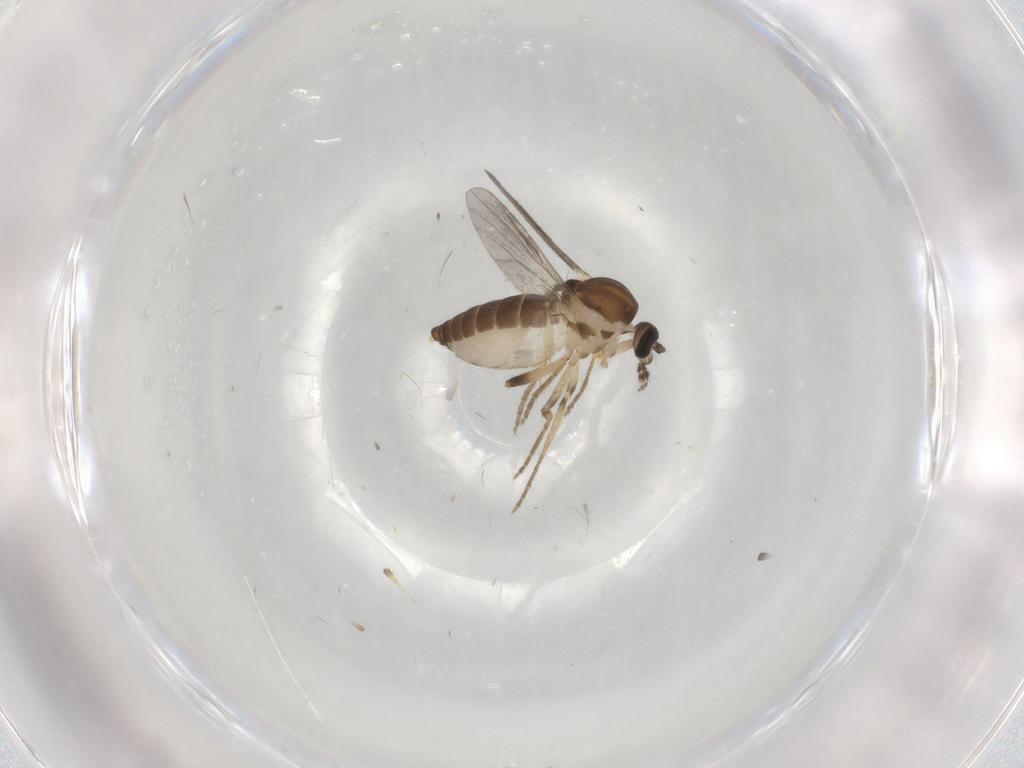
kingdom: Animalia
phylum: Arthropoda
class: Insecta
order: Diptera
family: Ceratopogonidae
